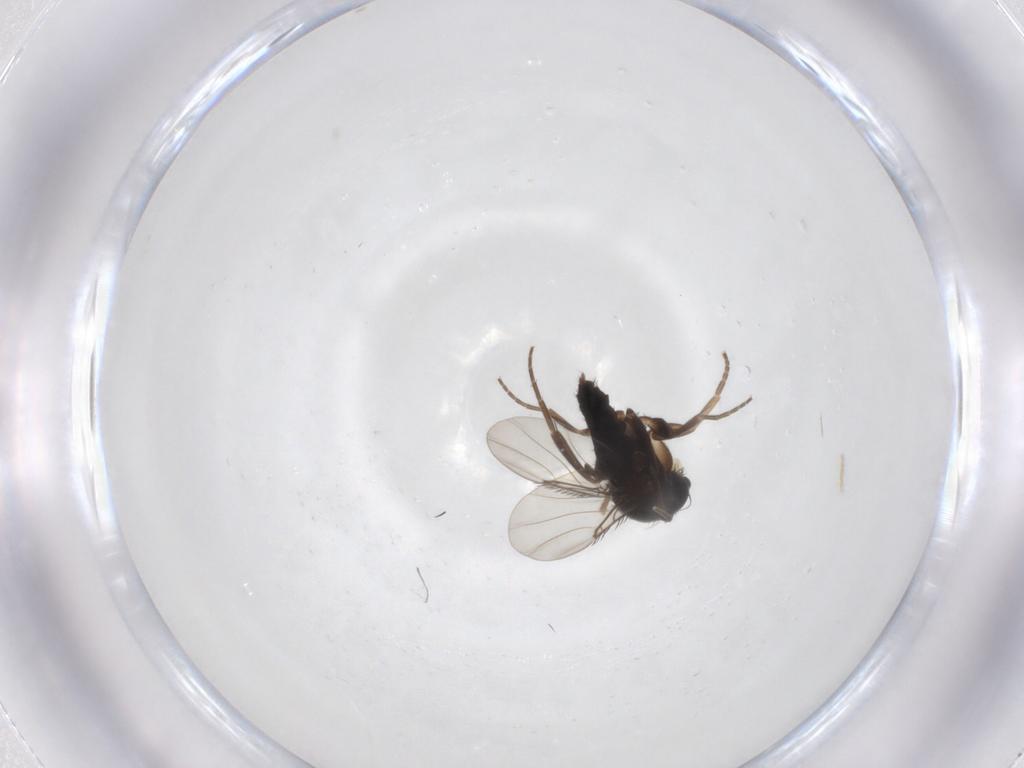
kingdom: Animalia
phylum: Arthropoda
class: Insecta
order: Diptera
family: Phoridae
